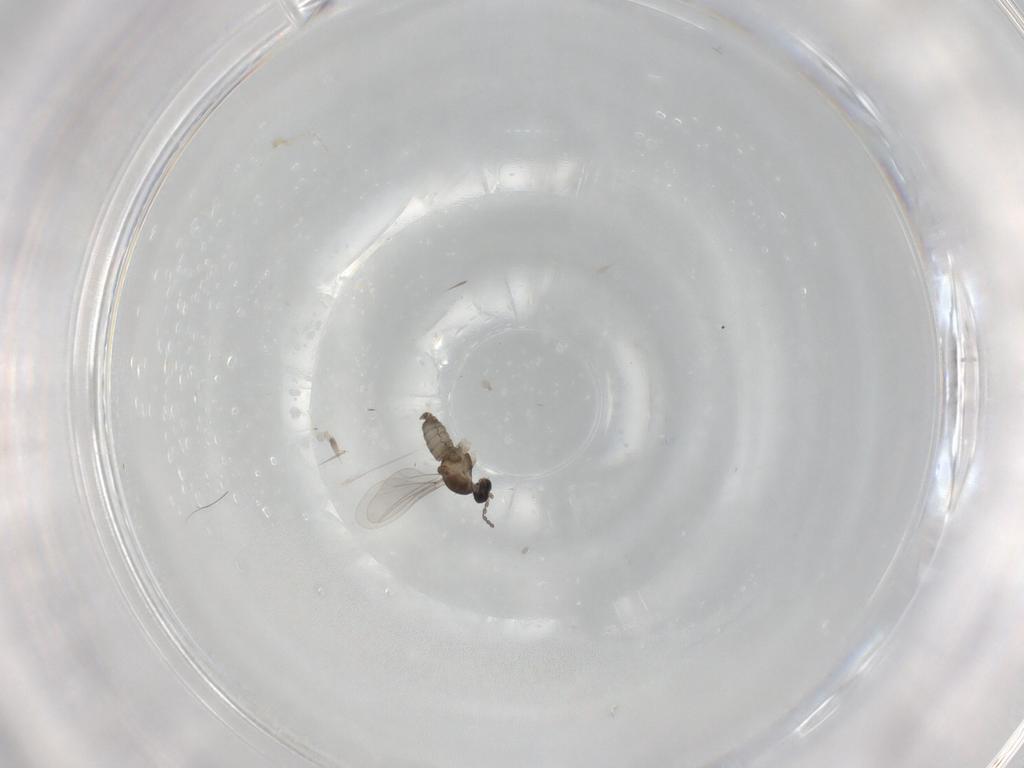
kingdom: Animalia
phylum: Arthropoda
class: Insecta
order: Diptera
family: Cecidomyiidae
